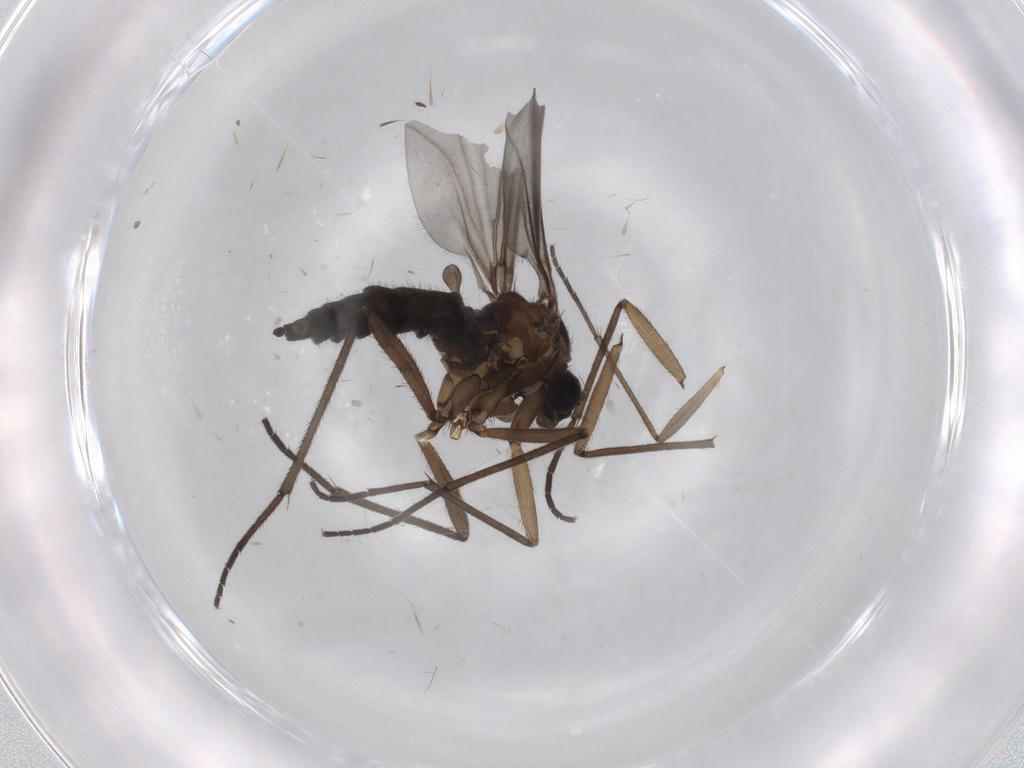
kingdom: Animalia
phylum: Arthropoda
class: Insecta
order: Diptera
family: Sciaridae
